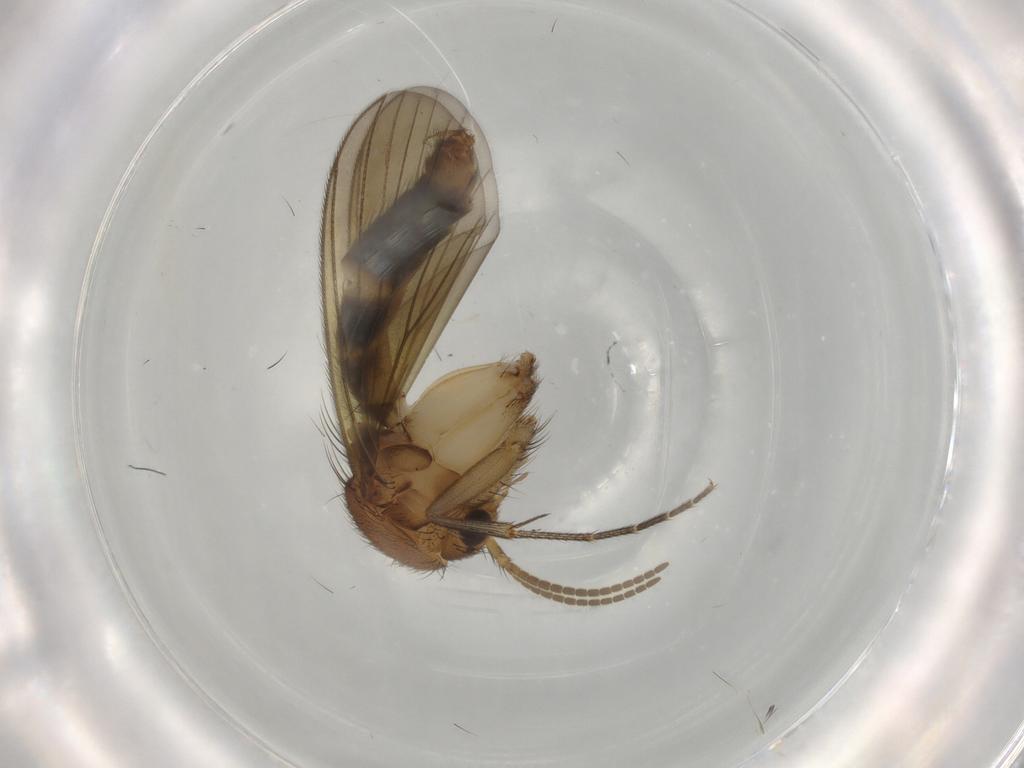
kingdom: Animalia
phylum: Arthropoda
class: Insecta
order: Diptera
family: Mycetophilidae
